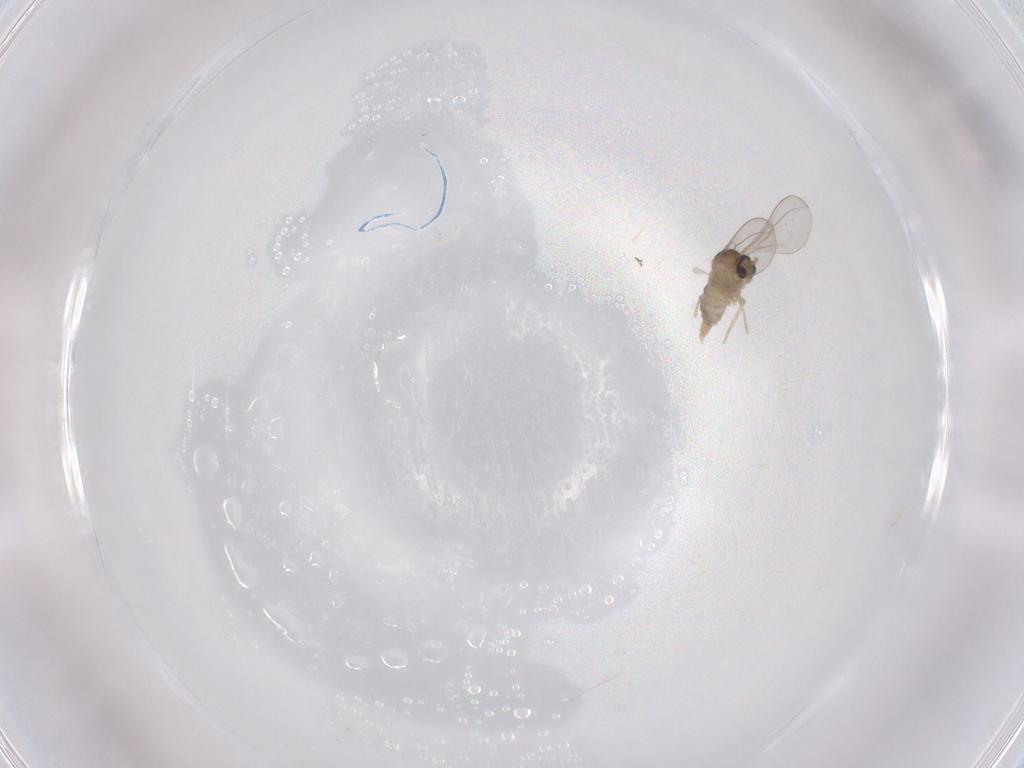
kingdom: Animalia
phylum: Arthropoda
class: Insecta
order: Diptera
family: Cecidomyiidae
